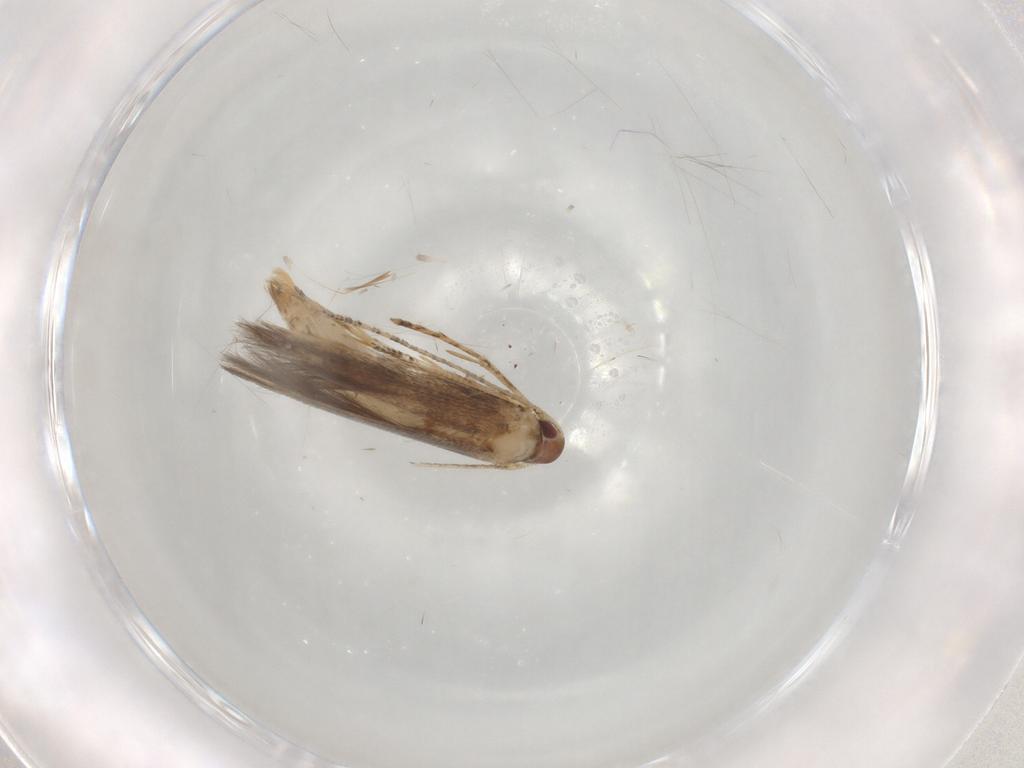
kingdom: Animalia
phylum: Arthropoda
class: Insecta
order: Lepidoptera
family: Cosmopterigidae
